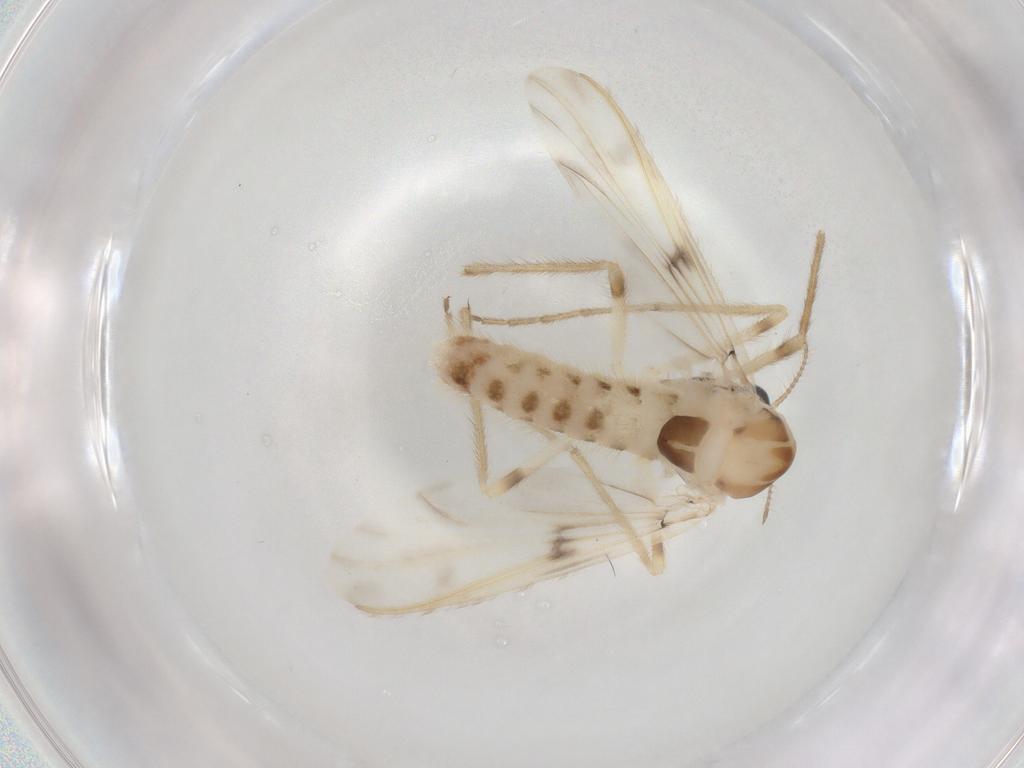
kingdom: Animalia
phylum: Arthropoda
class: Insecta
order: Diptera
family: Chironomidae
